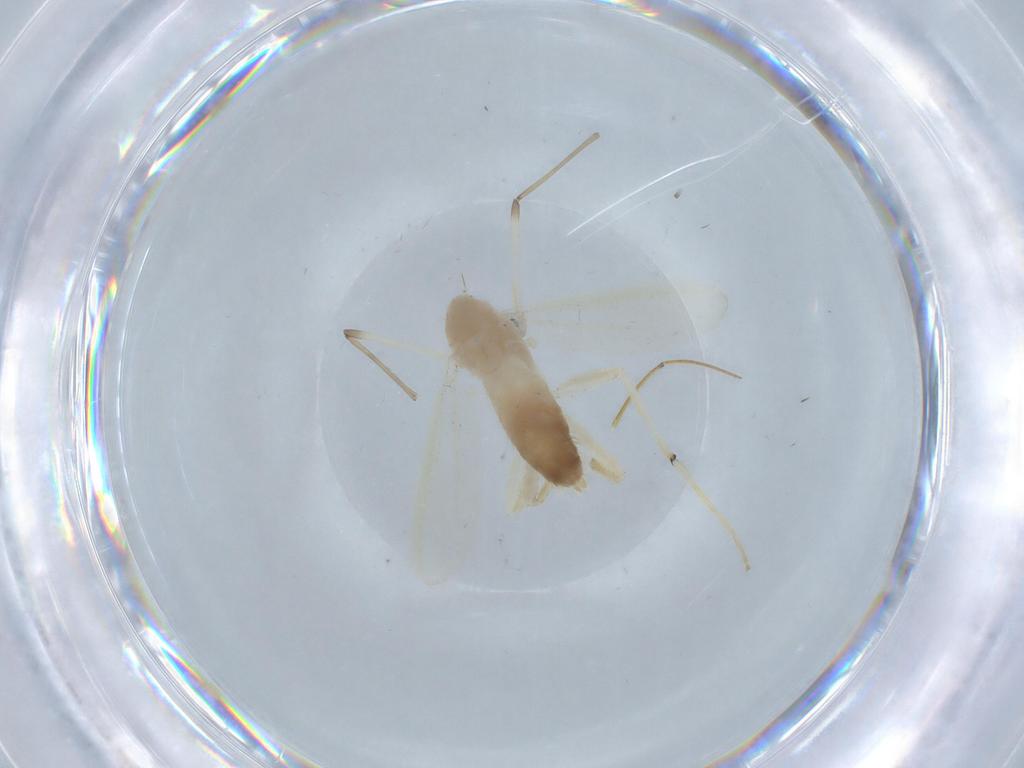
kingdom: Animalia
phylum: Arthropoda
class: Insecta
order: Diptera
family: Chironomidae
